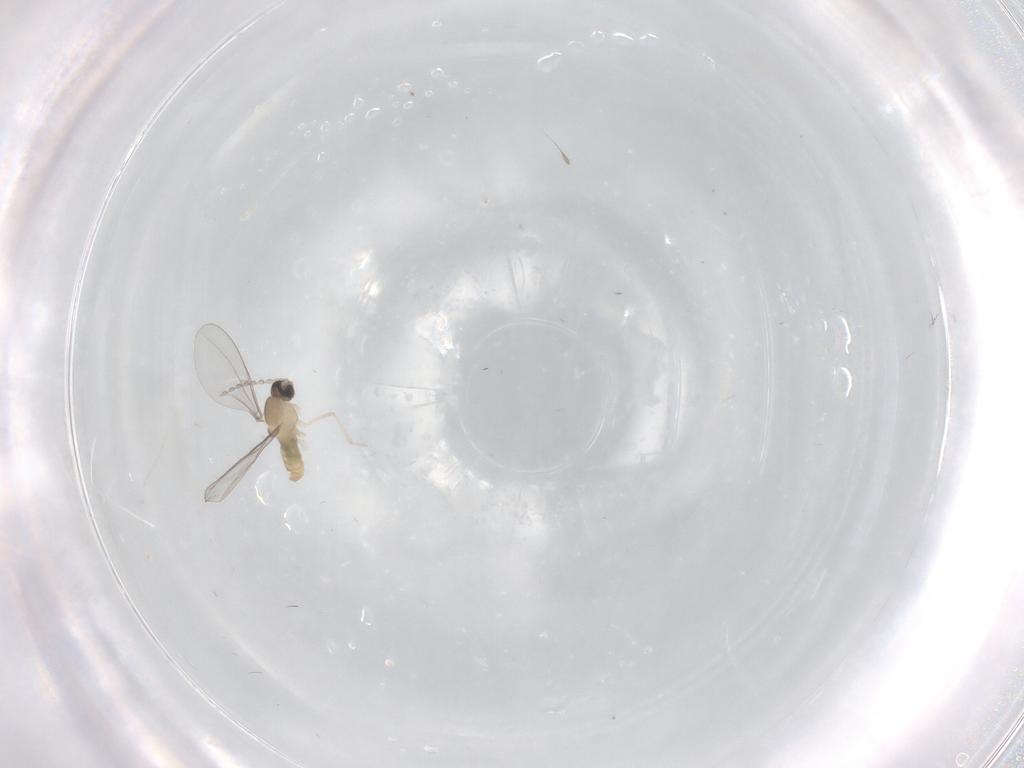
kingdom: Animalia
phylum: Arthropoda
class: Insecta
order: Diptera
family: Cecidomyiidae
